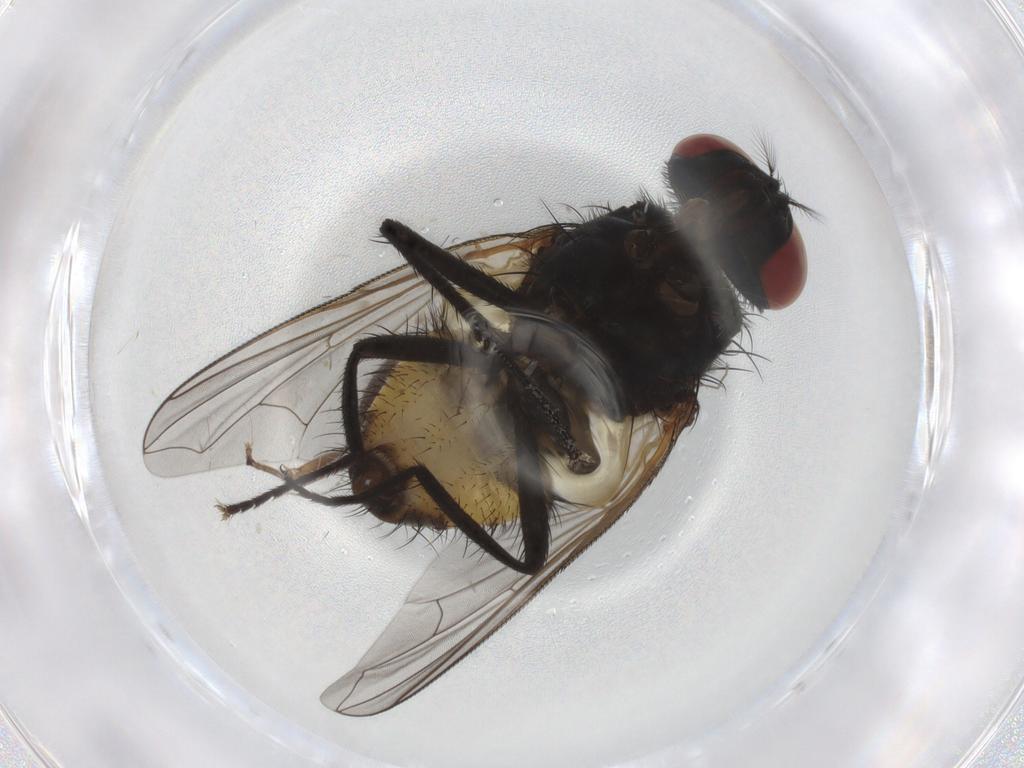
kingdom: Animalia
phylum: Arthropoda
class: Insecta
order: Diptera
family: Muscidae
